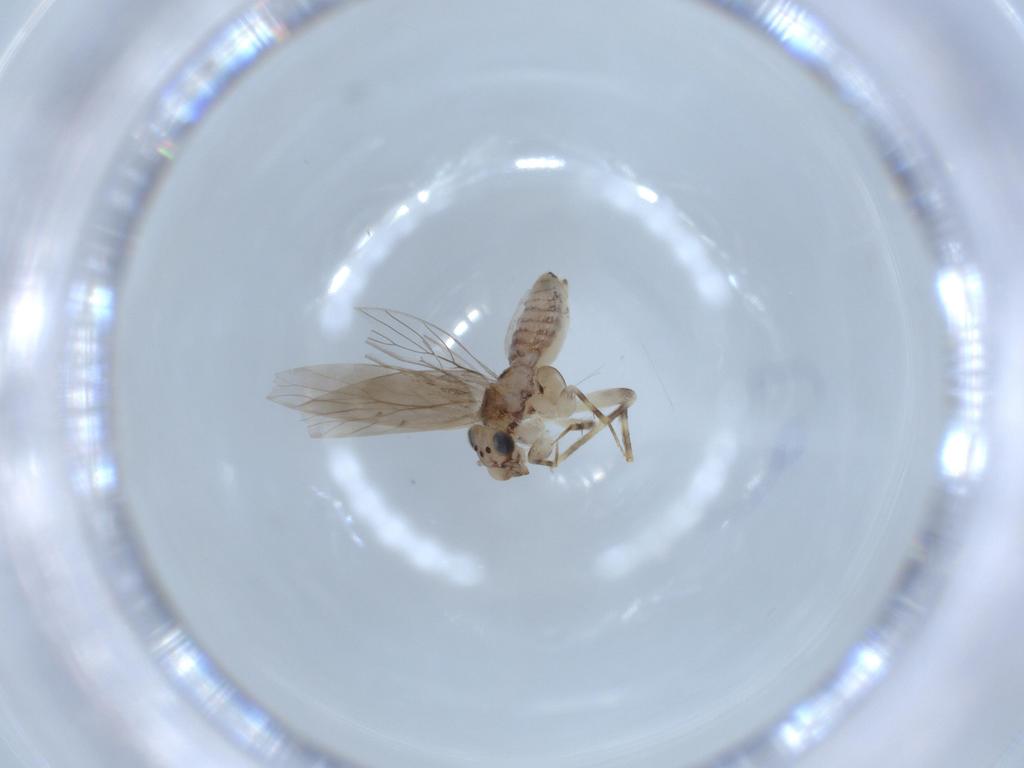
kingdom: Animalia
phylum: Arthropoda
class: Insecta
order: Psocodea
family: Lepidopsocidae
